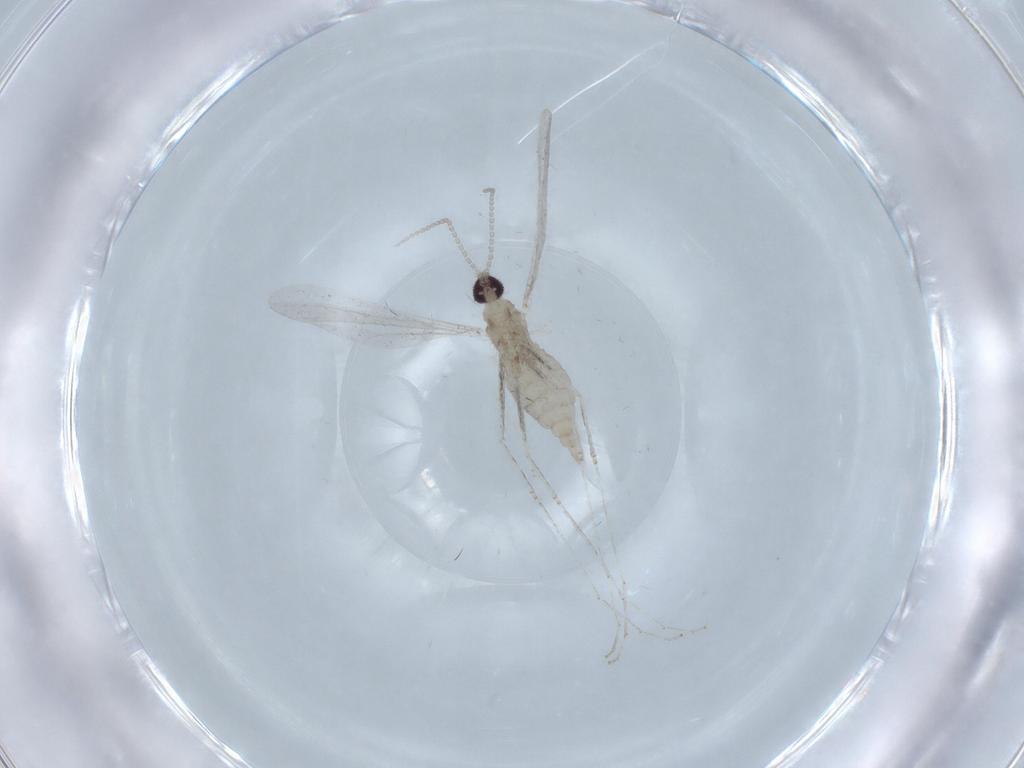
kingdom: Animalia
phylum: Arthropoda
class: Insecta
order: Diptera
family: Cecidomyiidae
